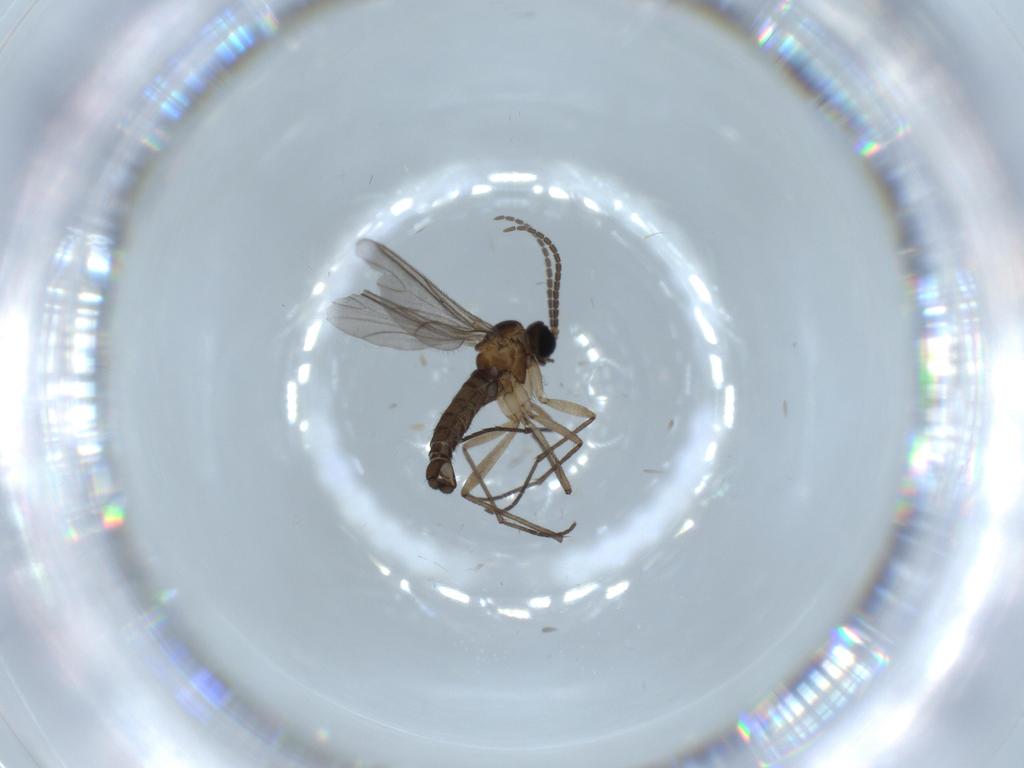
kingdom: Animalia
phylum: Arthropoda
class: Insecta
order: Diptera
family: Sciaridae
